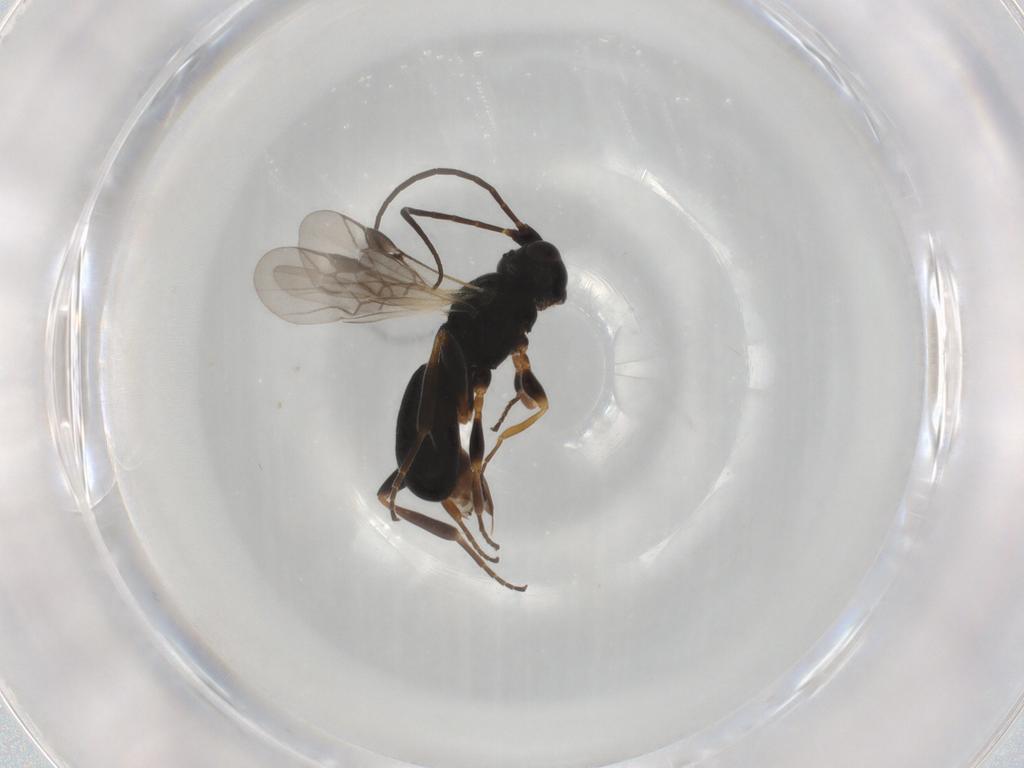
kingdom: Animalia
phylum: Arthropoda
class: Insecta
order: Hymenoptera
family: Braconidae
